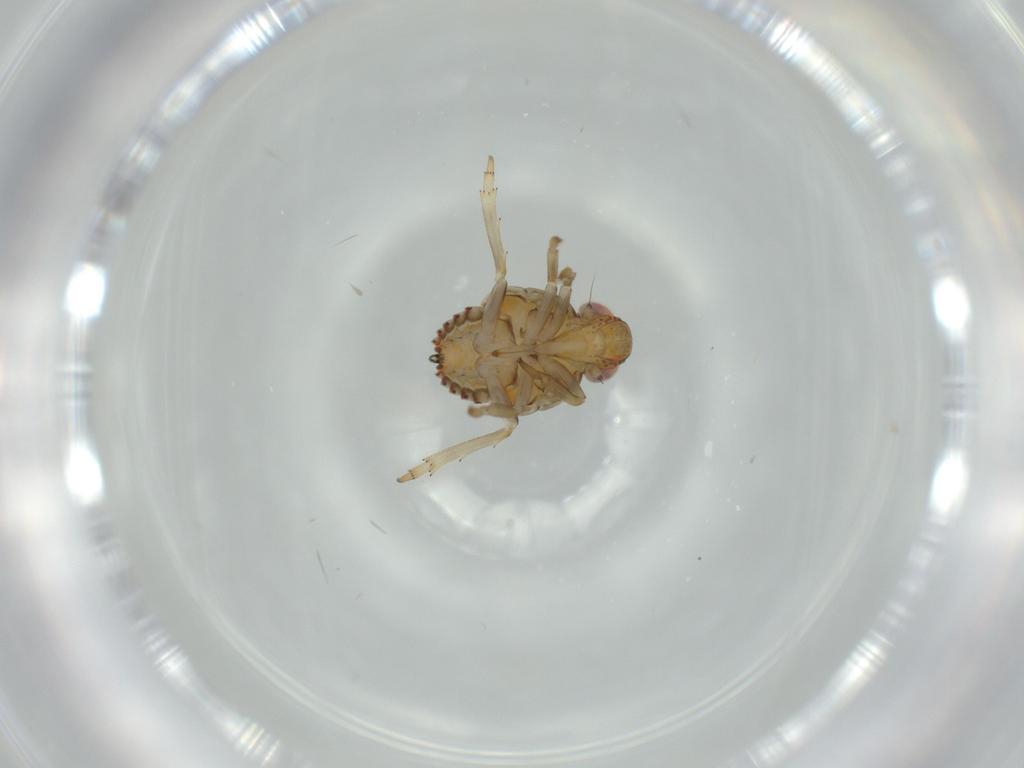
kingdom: Animalia
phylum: Arthropoda
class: Insecta
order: Hemiptera
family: Issidae
